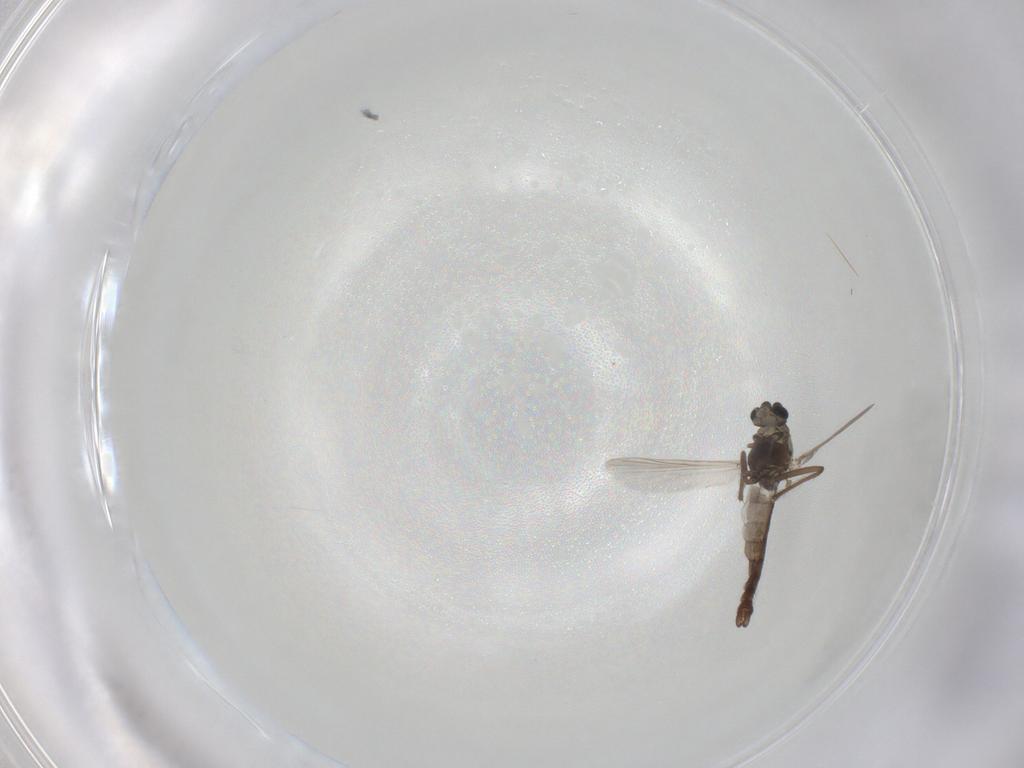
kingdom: Animalia
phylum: Arthropoda
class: Insecta
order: Diptera
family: Chironomidae
